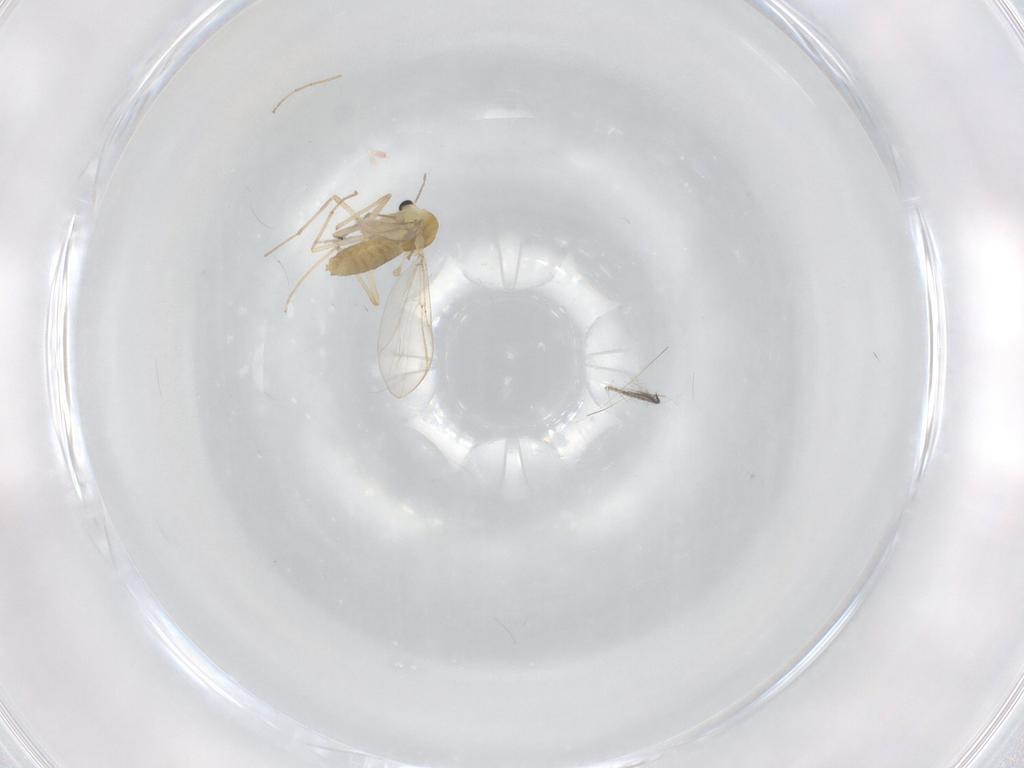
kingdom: Animalia
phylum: Arthropoda
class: Insecta
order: Diptera
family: Chironomidae
